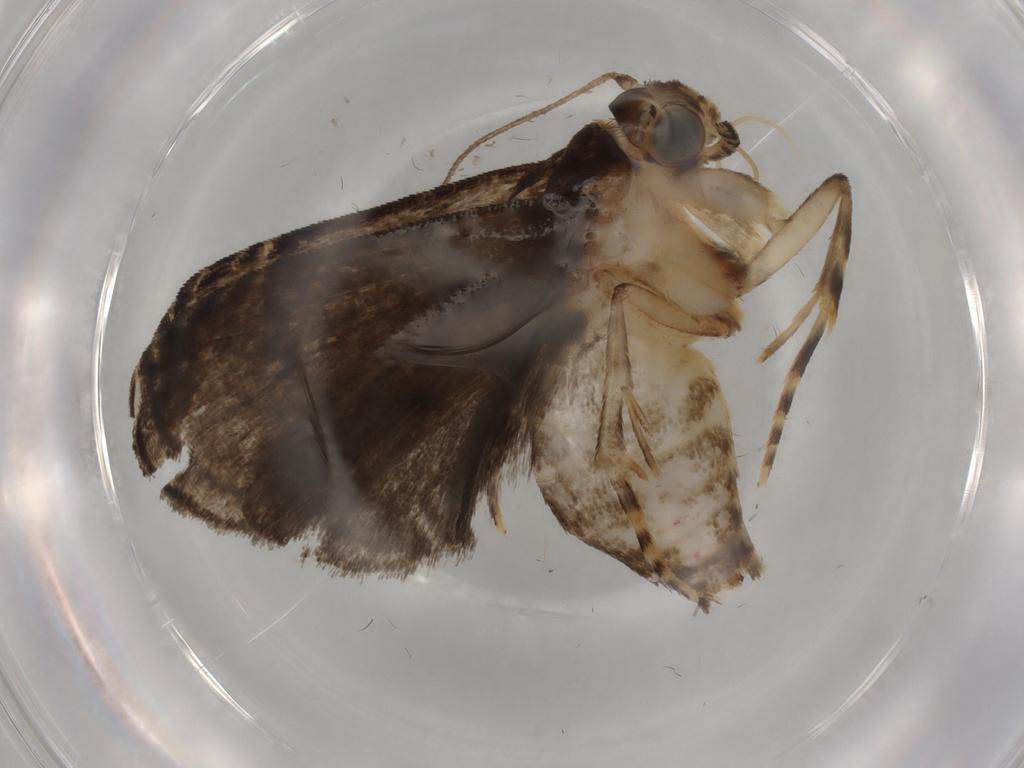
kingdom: Animalia
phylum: Arthropoda
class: Insecta
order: Lepidoptera
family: Immidae
